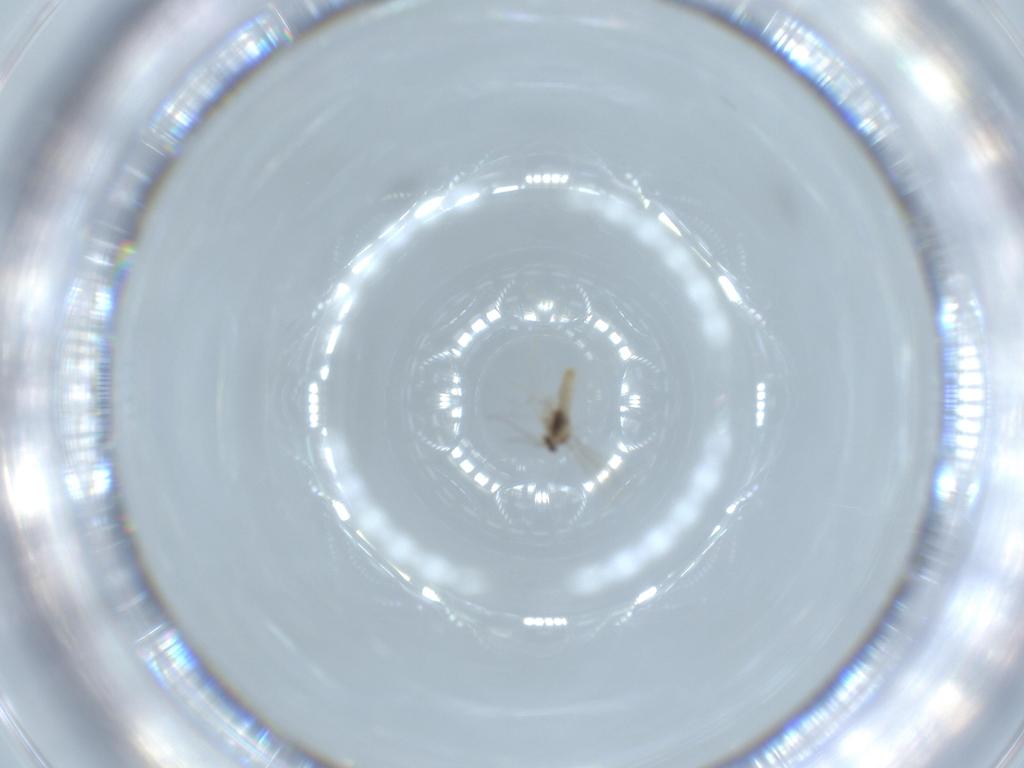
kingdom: Animalia
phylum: Arthropoda
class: Insecta
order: Diptera
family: Cecidomyiidae
